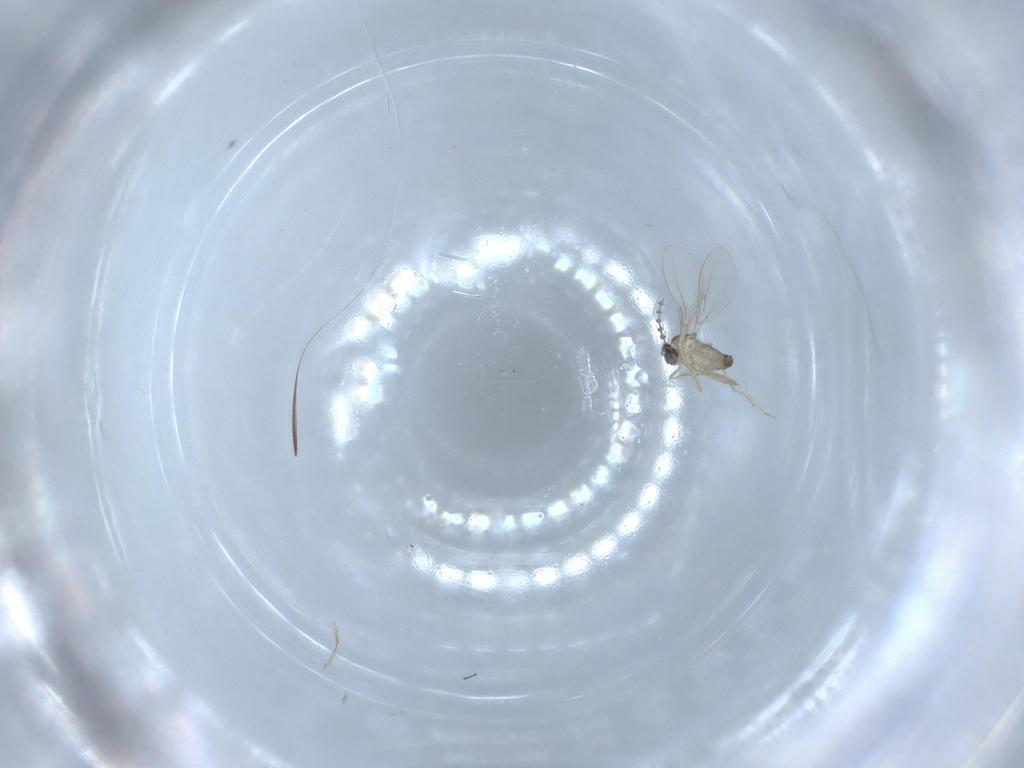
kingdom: Animalia
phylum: Arthropoda
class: Insecta
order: Diptera
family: Cecidomyiidae
